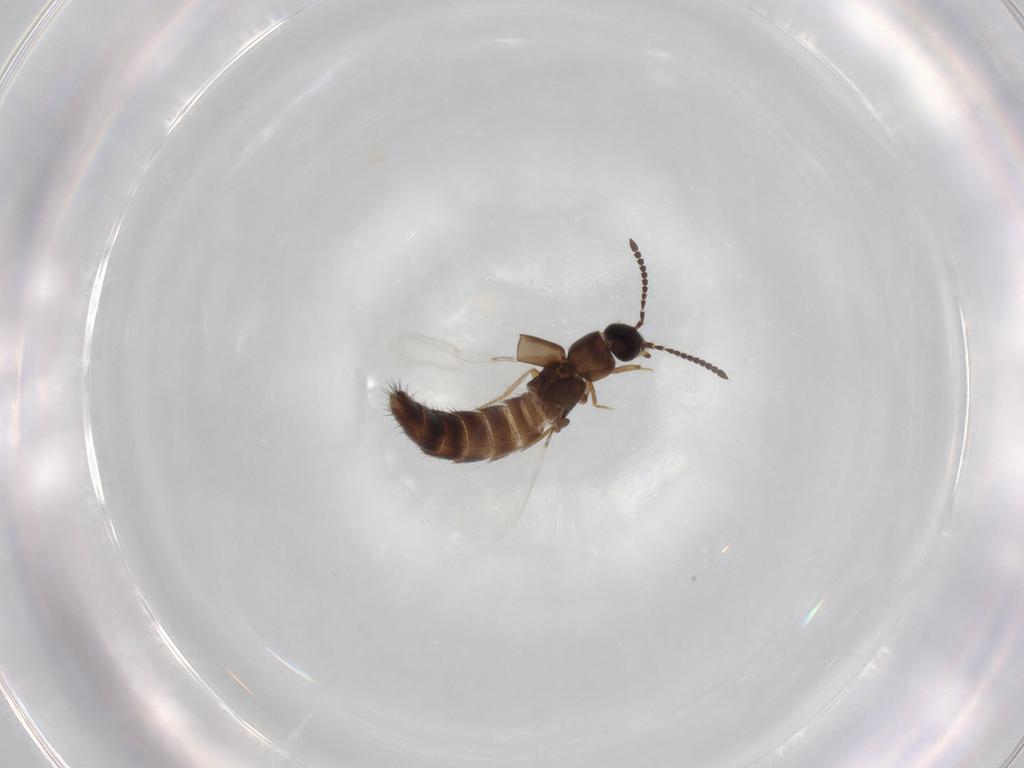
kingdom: Animalia
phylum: Arthropoda
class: Insecta
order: Coleoptera
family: Staphylinidae
